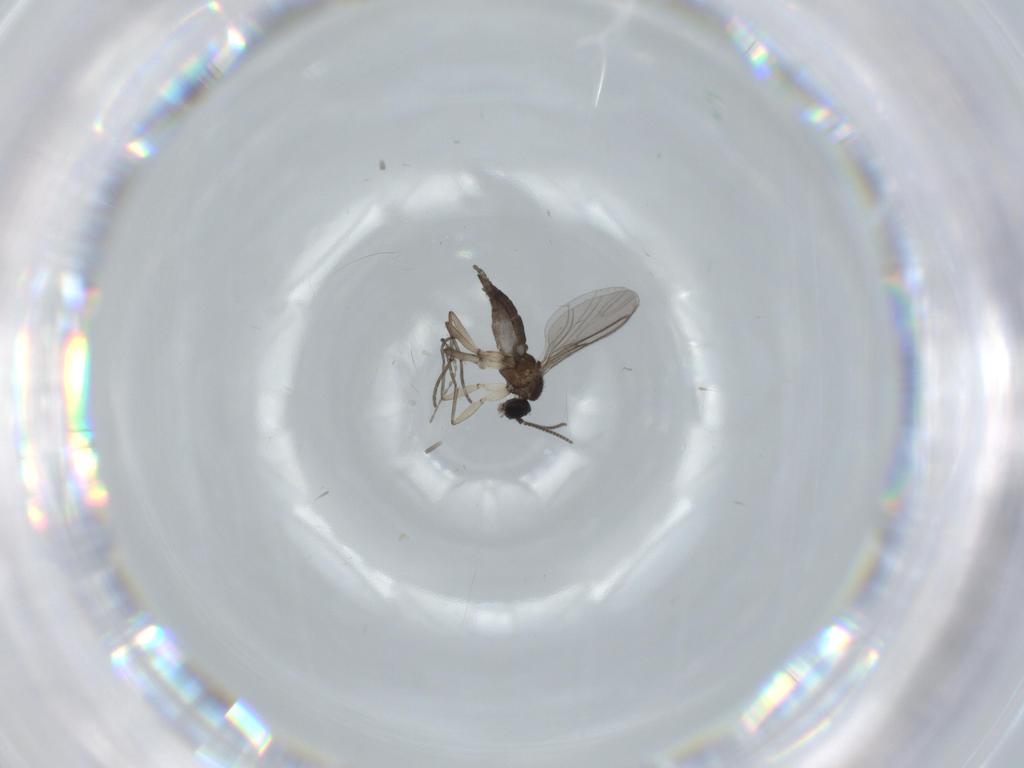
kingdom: Animalia
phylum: Arthropoda
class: Insecta
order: Diptera
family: Sciaridae
